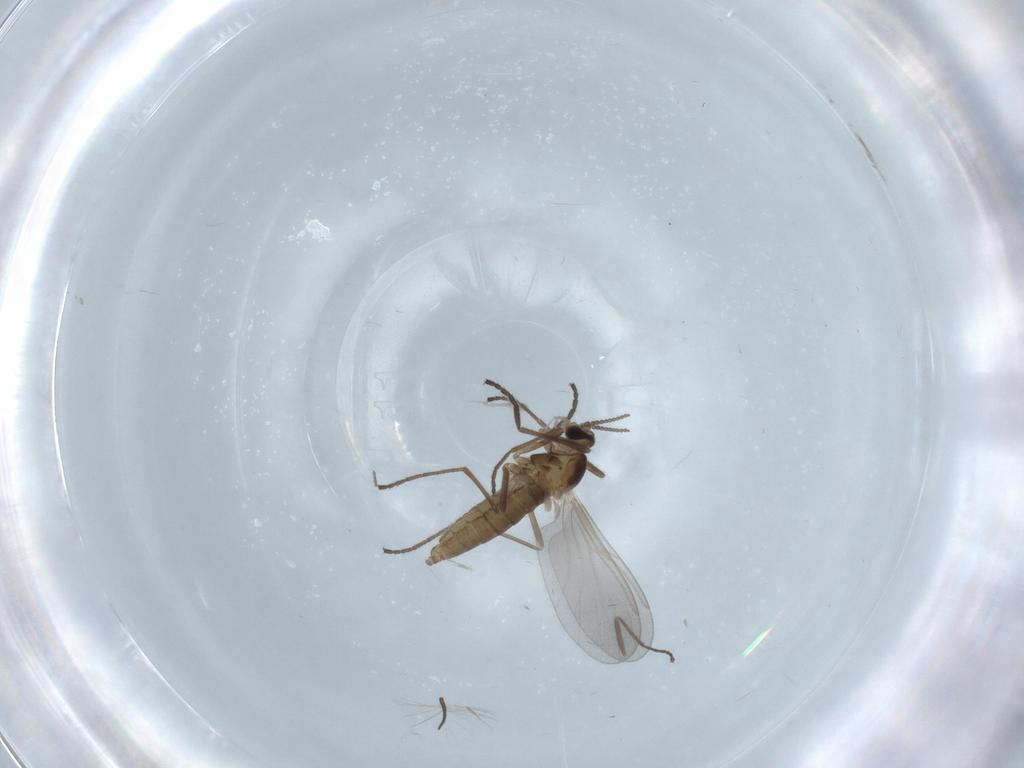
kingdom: Animalia
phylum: Arthropoda
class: Insecta
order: Diptera
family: Cecidomyiidae
